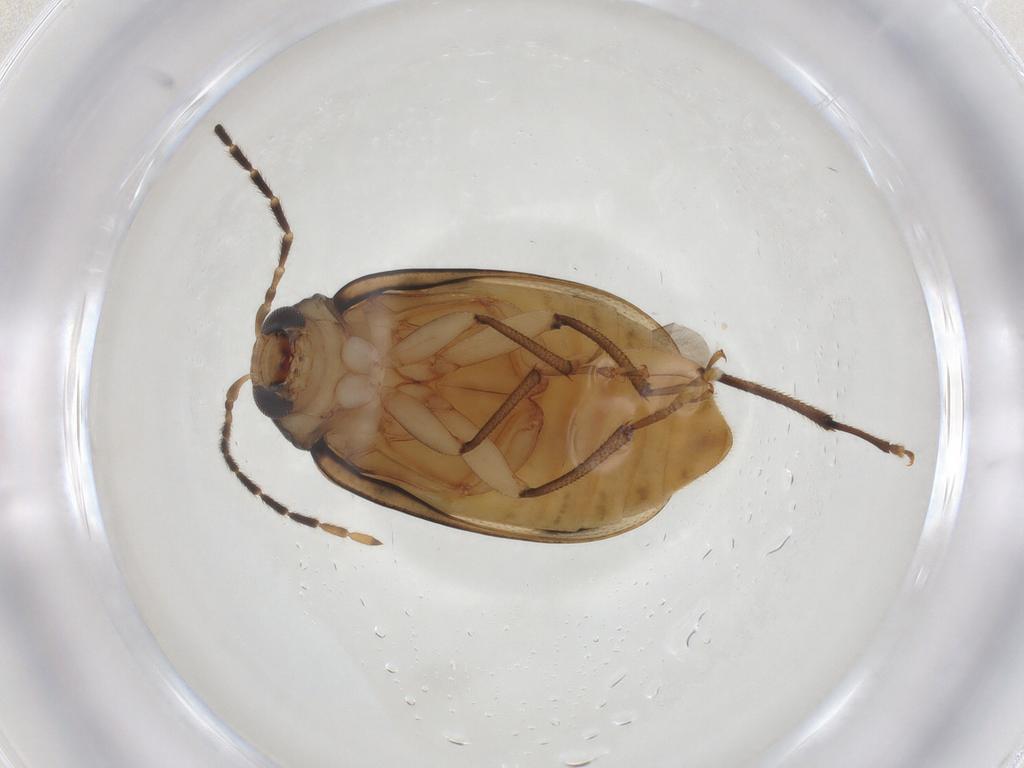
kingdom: Animalia
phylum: Arthropoda
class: Insecta
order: Coleoptera
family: Chrysomelidae
